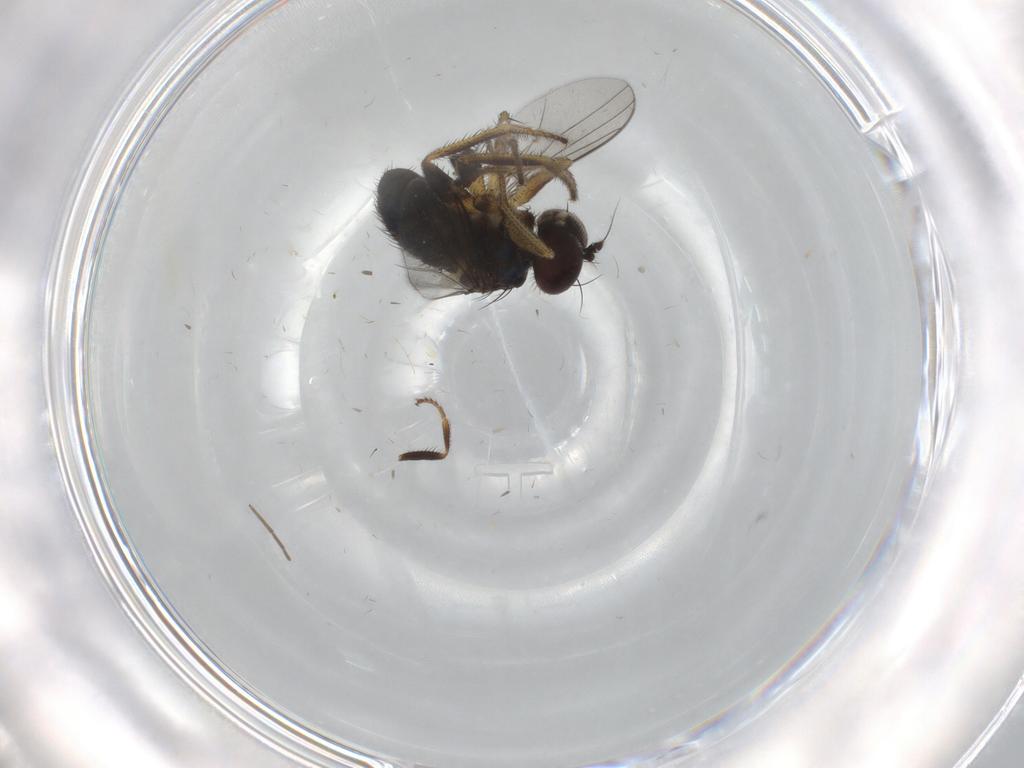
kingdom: Animalia
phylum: Arthropoda
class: Insecta
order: Diptera
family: Dolichopodidae
